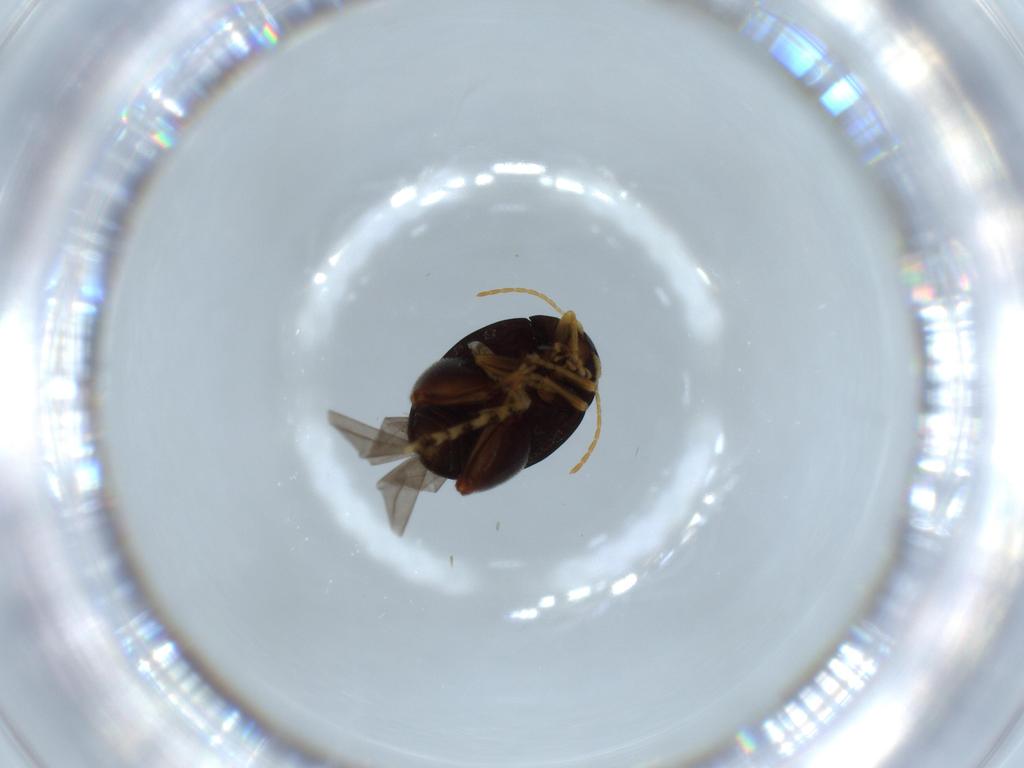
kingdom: Animalia
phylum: Arthropoda
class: Insecta
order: Coleoptera
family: Chrysomelidae
